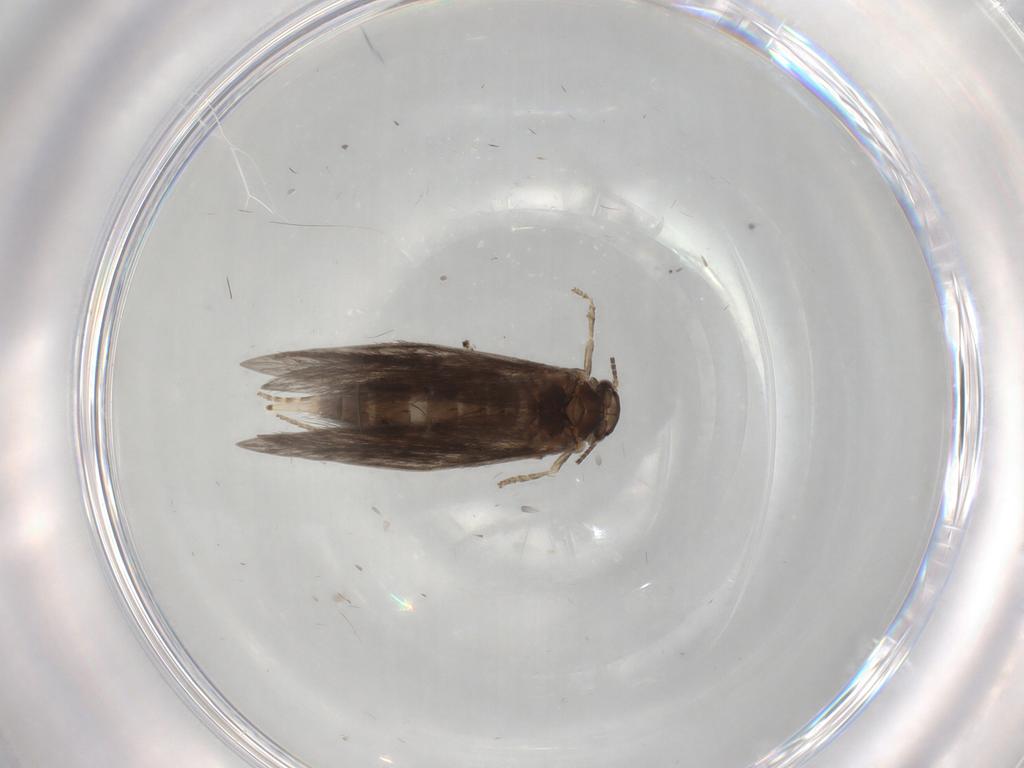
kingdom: Animalia
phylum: Arthropoda
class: Insecta
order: Trichoptera
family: Hydroptilidae
